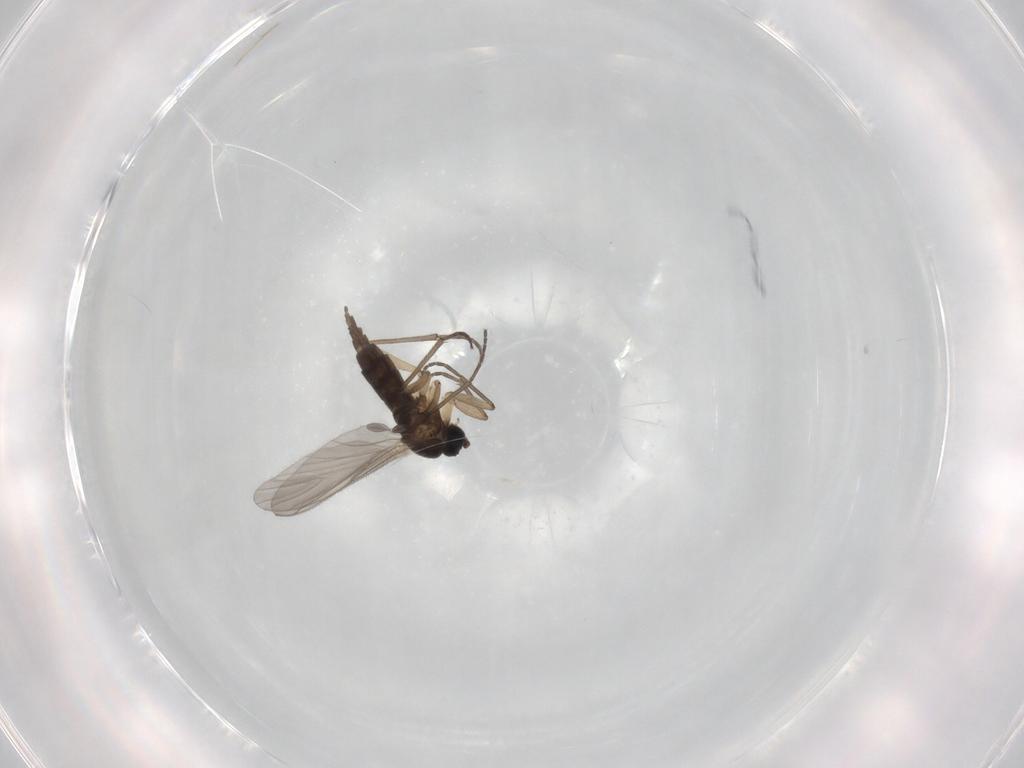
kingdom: Animalia
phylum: Arthropoda
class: Insecta
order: Diptera
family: Sciaridae
